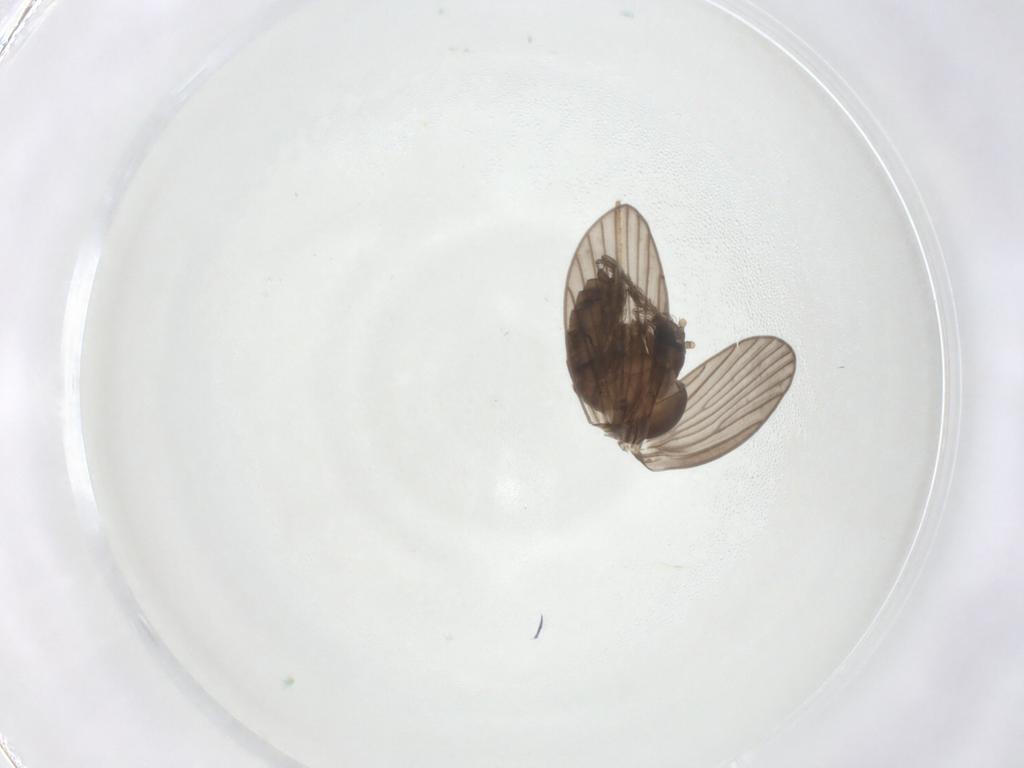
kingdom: Animalia
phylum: Arthropoda
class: Insecta
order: Diptera
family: Psychodidae
